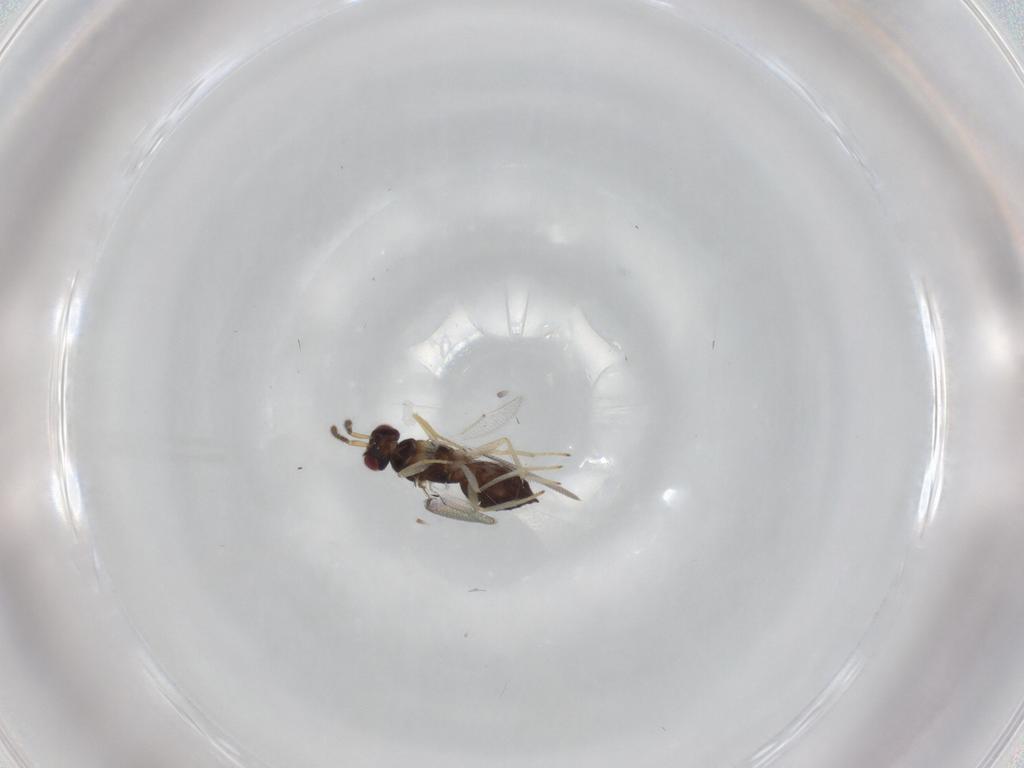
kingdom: Animalia
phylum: Arthropoda
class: Insecta
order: Hymenoptera
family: Eulophidae
